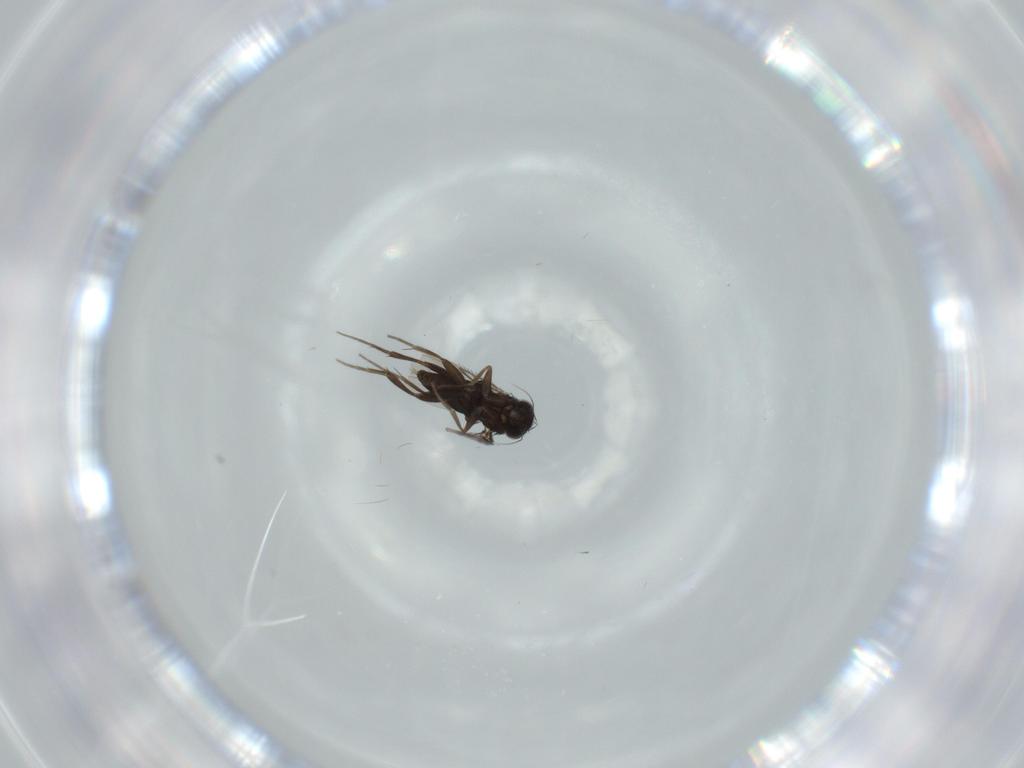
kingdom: Animalia
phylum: Arthropoda
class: Insecta
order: Diptera
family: Phoridae
